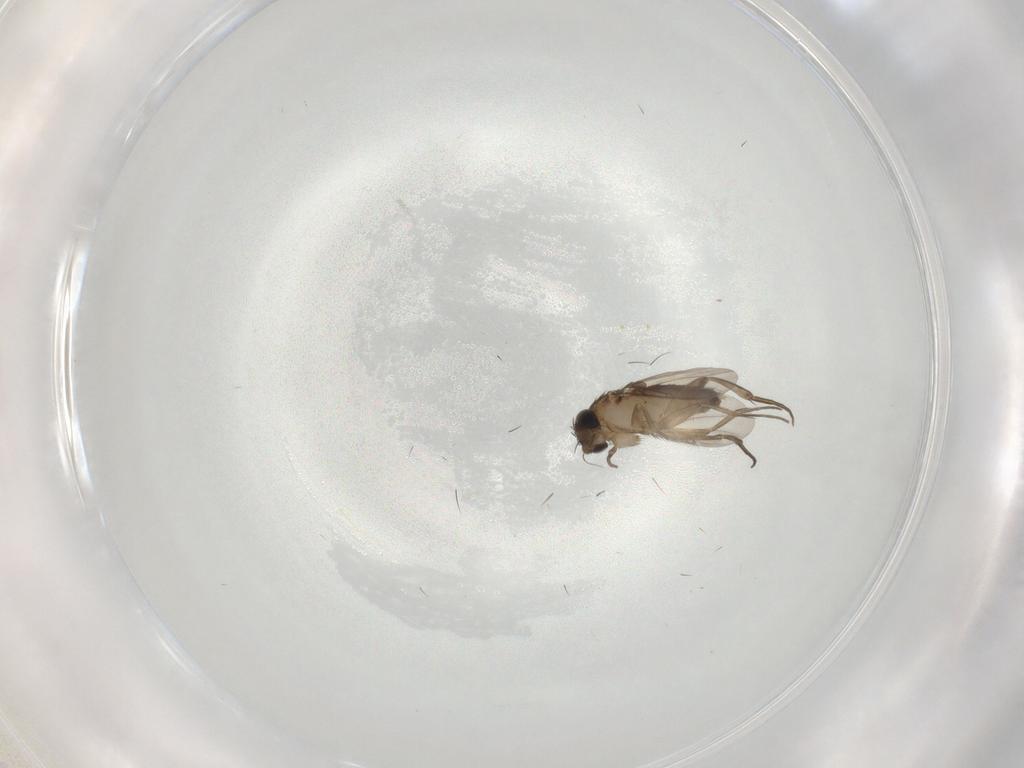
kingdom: Animalia
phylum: Arthropoda
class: Insecta
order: Diptera
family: Phoridae
